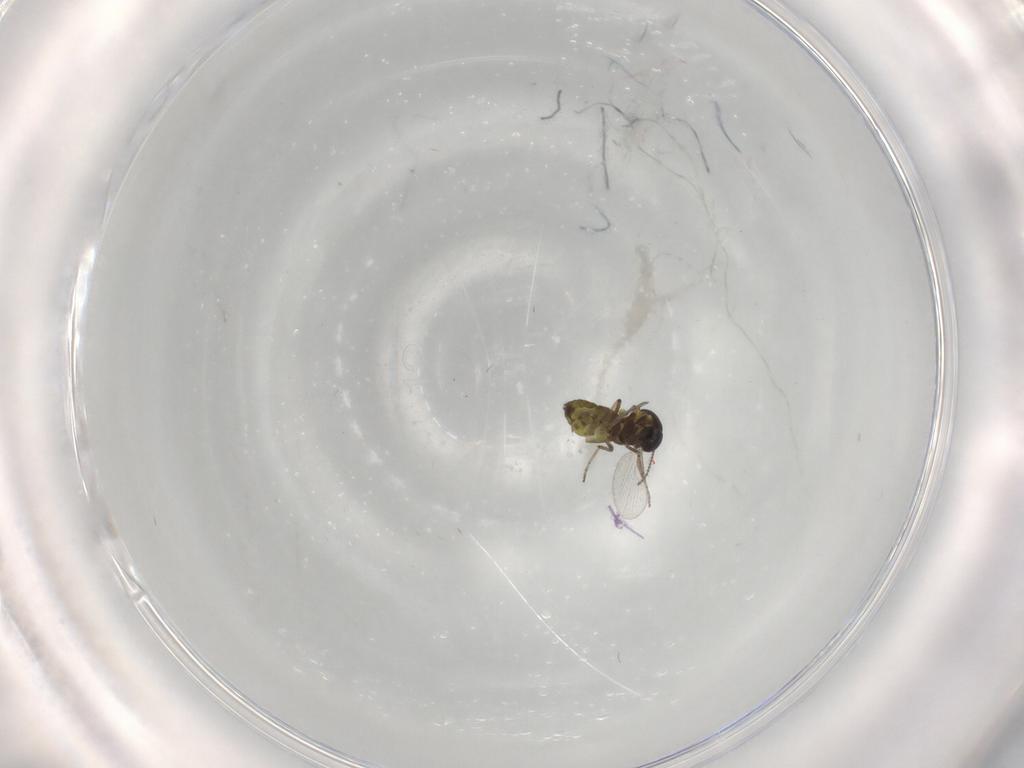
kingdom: Animalia
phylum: Arthropoda
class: Insecta
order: Diptera
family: Ceratopogonidae
